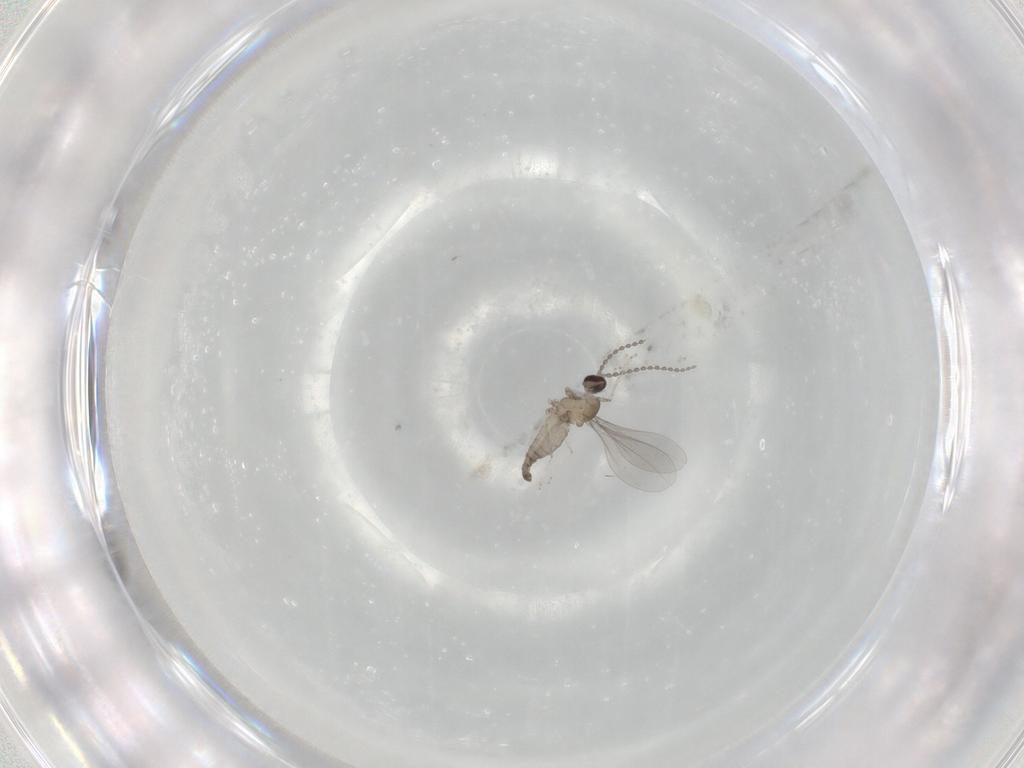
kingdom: Animalia
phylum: Arthropoda
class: Insecta
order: Diptera
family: Cecidomyiidae
